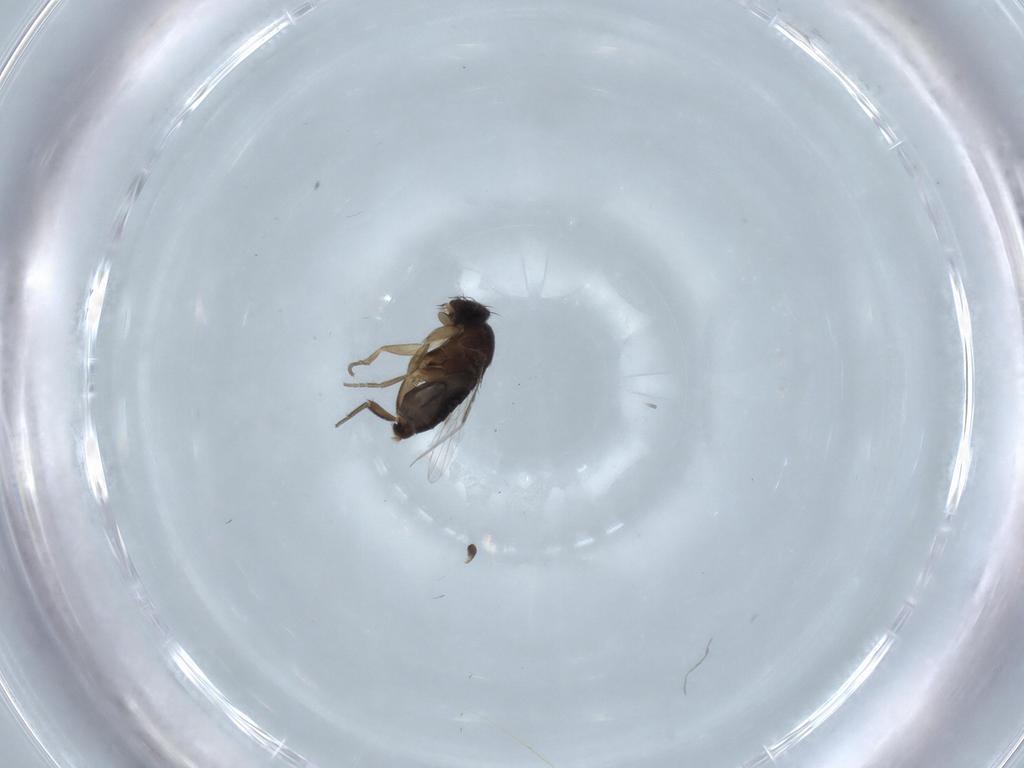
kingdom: Animalia
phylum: Arthropoda
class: Insecta
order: Diptera
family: Phoridae
